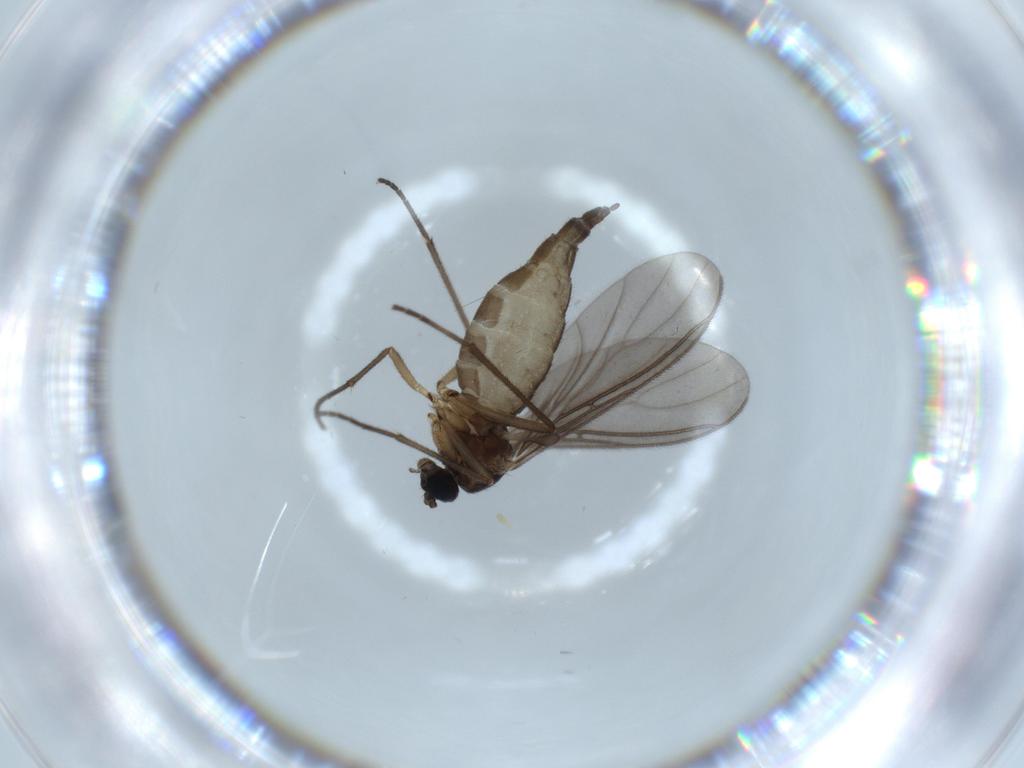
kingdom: Animalia
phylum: Arthropoda
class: Insecta
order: Diptera
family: Sciaridae
